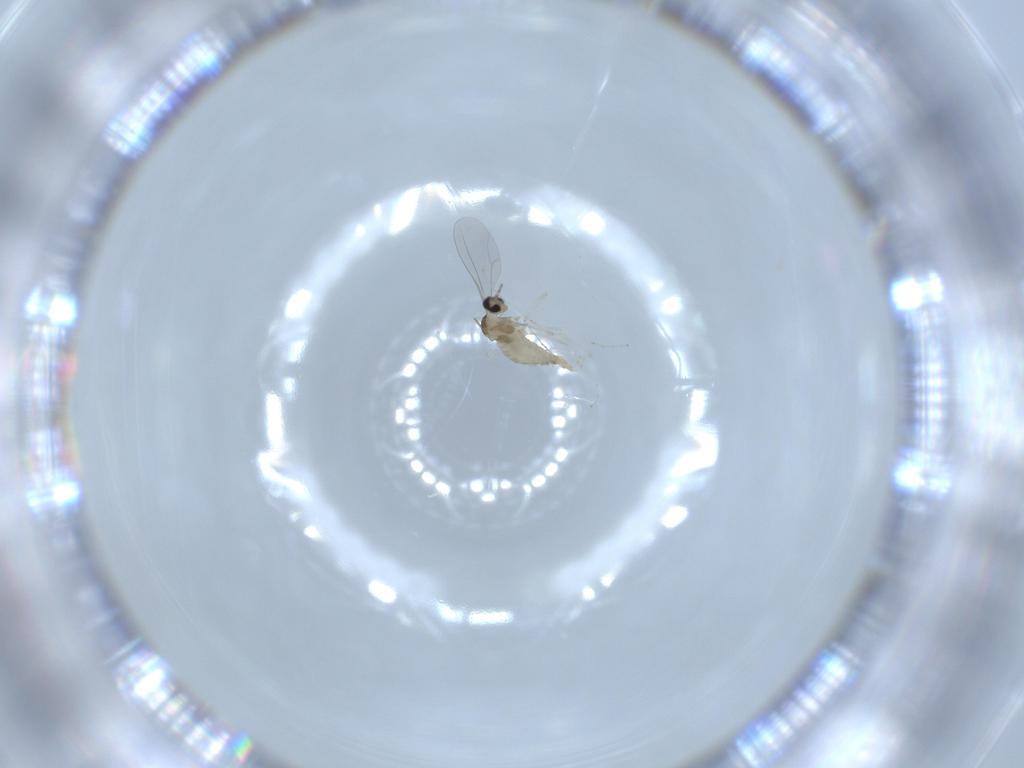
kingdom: Animalia
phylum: Arthropoda
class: Insecta
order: Diptera
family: Cecidomyiidae
